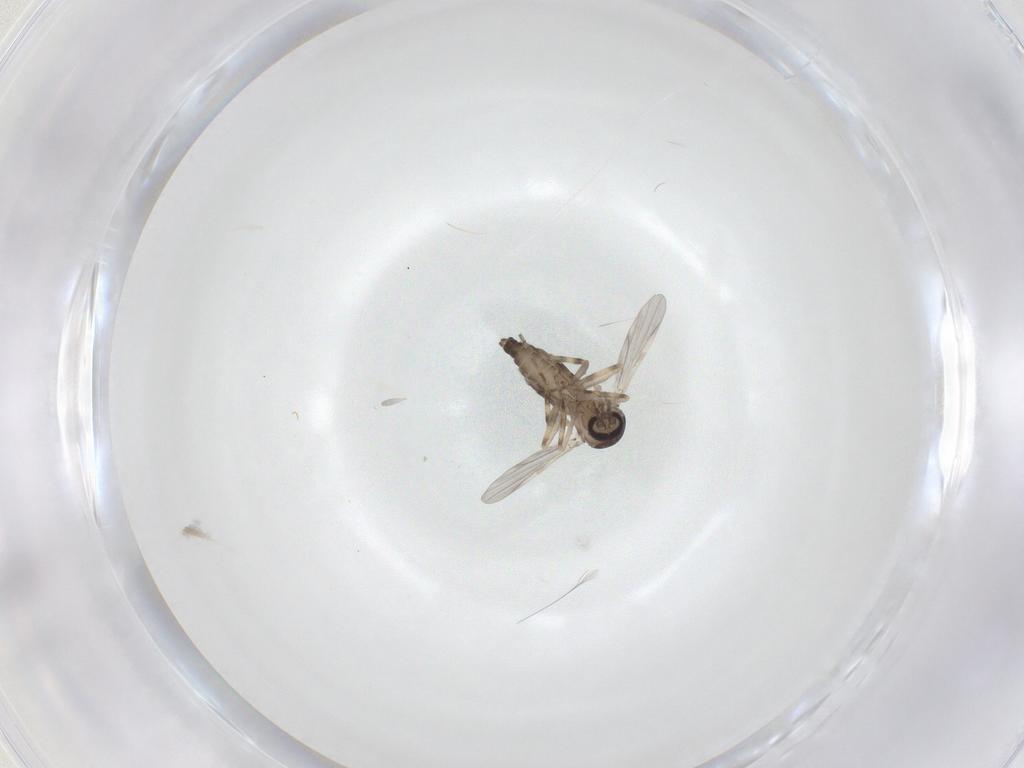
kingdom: Animalia
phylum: Arthropoda
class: Insecta
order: Diptera
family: Ceratopogonidae
